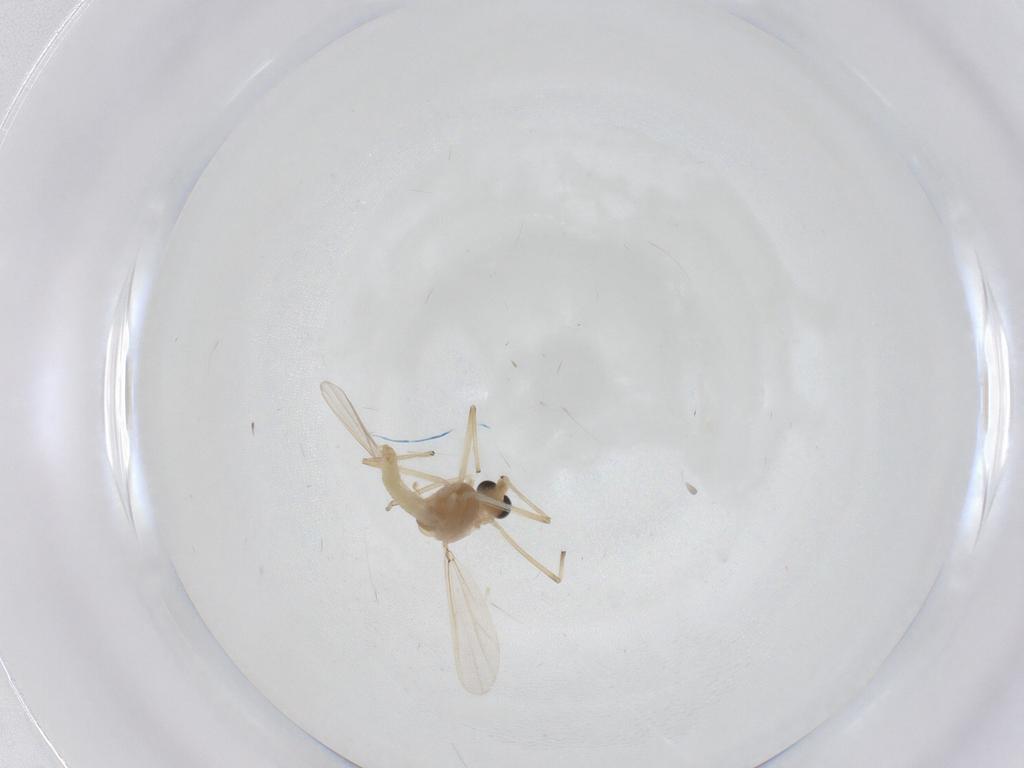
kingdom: Animalia
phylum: Arthropoda
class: Insecta
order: Diptera
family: Chironomidae
